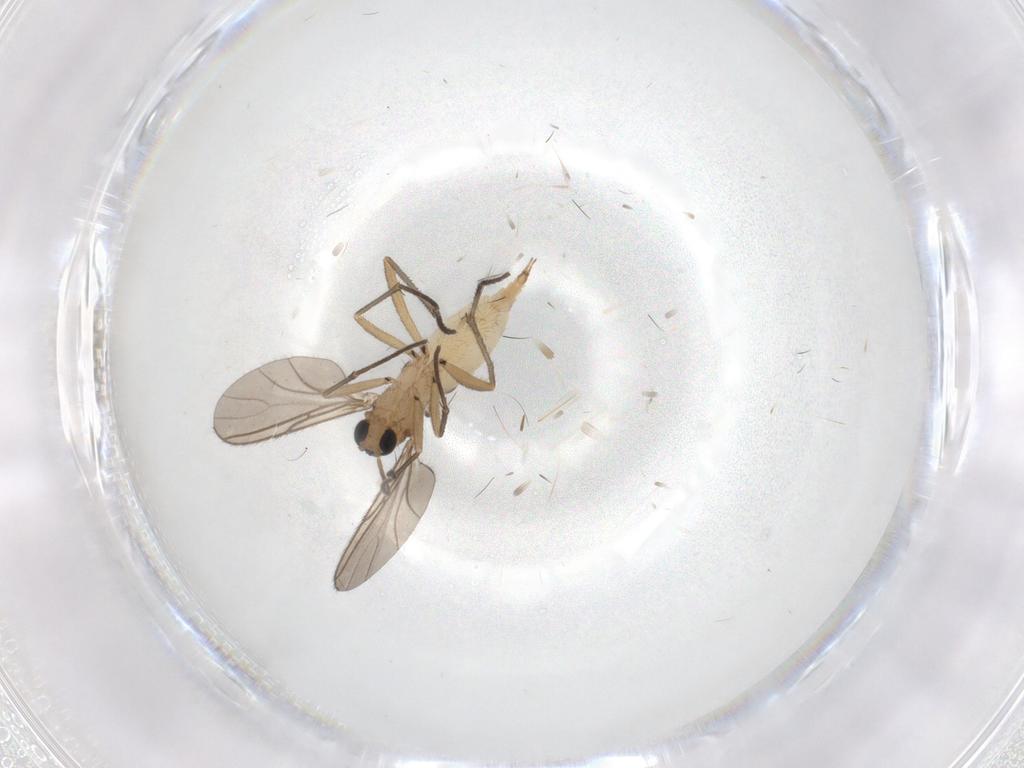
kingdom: Animalia
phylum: Arthropoda
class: Insecta
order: Diptera
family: Sciaridae
